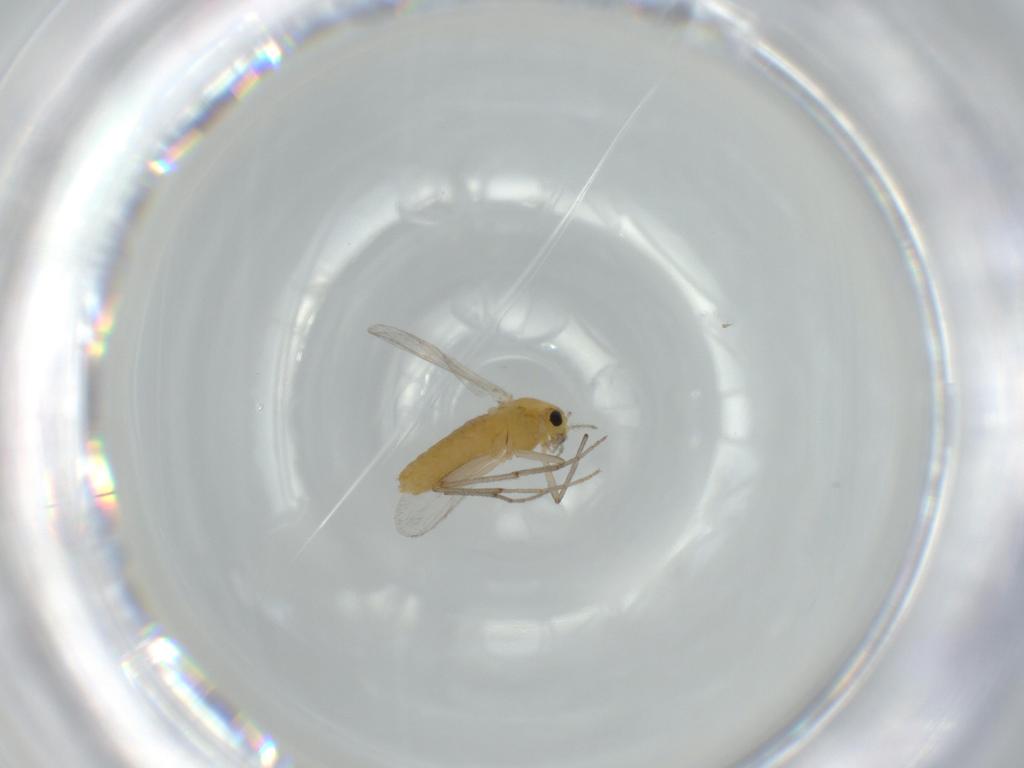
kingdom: Animalia
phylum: Arthropoda
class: Insecta
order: Diptera
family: Chironomidae
